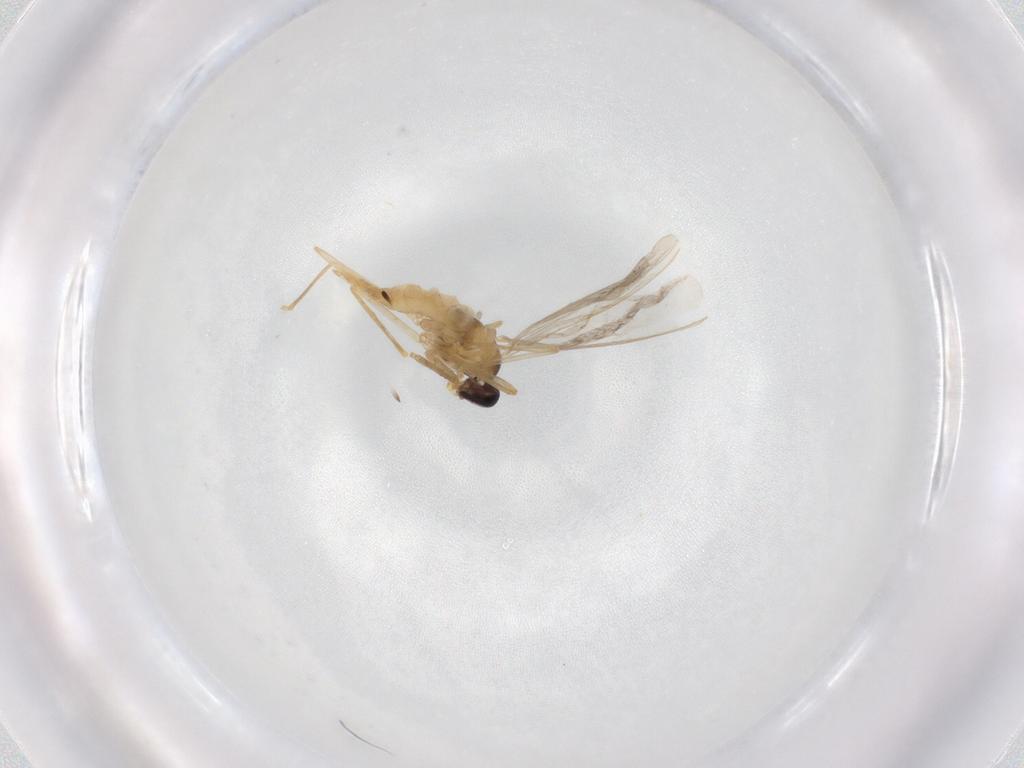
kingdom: Animalia
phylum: Arthropoda
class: Insecta
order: Diptera
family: Cecidomyiidae
